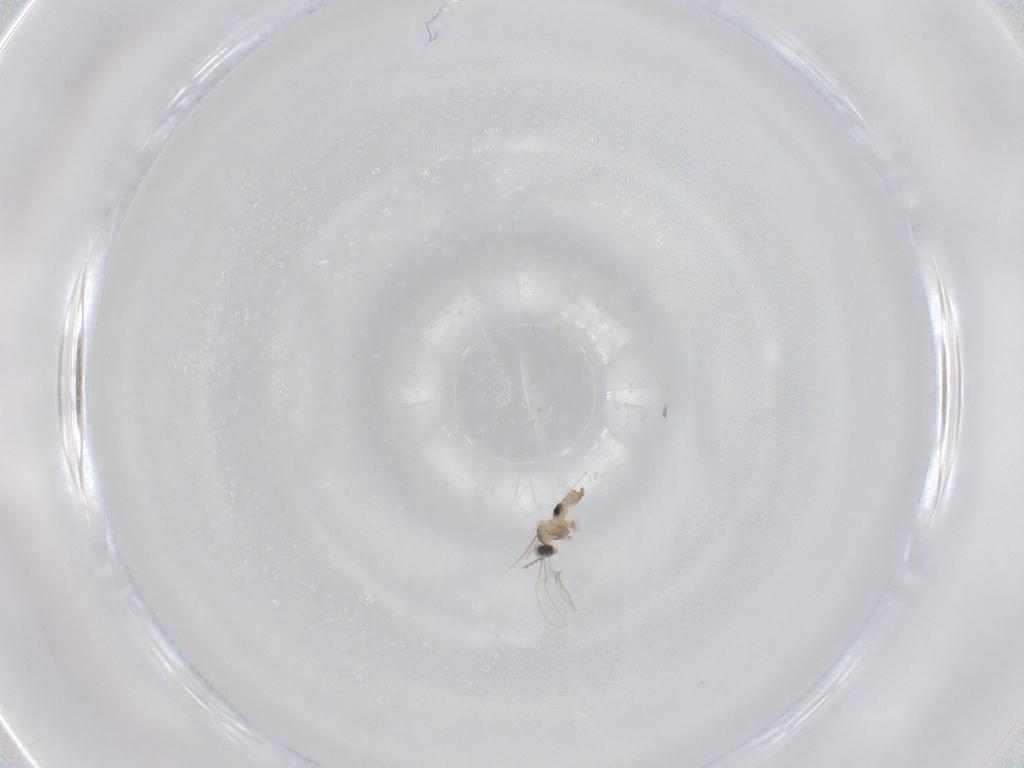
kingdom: Animalia
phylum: Arthropoda
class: Insecta
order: Diptera
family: Cecidomyiidae
